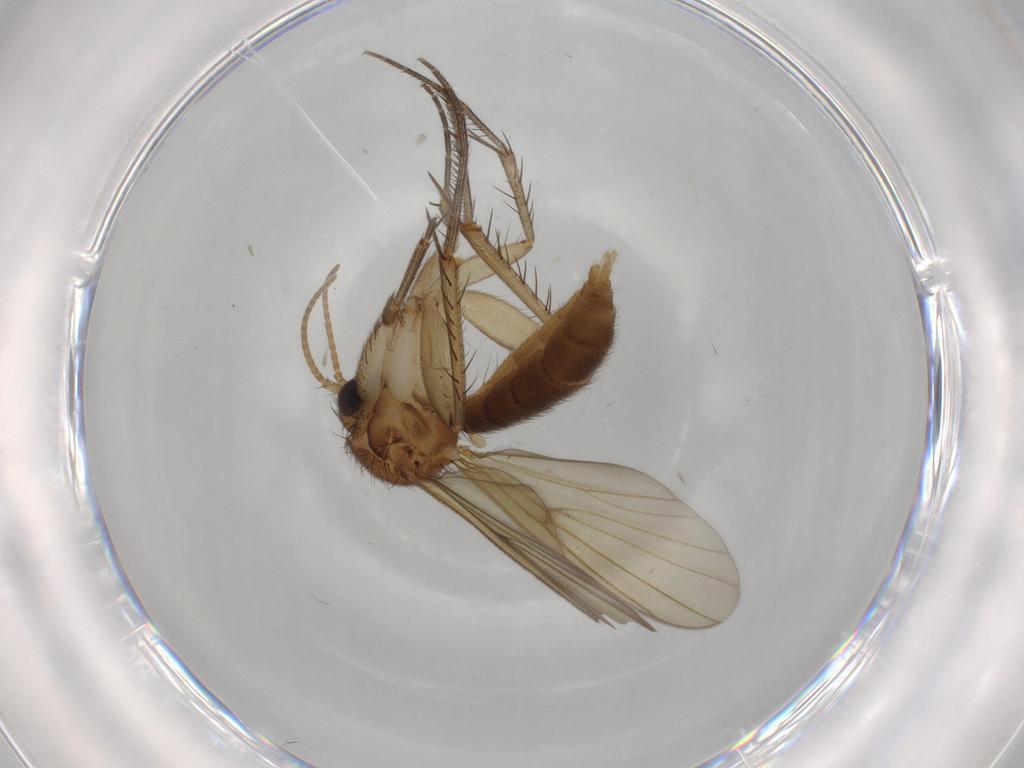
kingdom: Animalia
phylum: Arthropoda
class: Insecta
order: Diptera
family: Mycetophilidae
